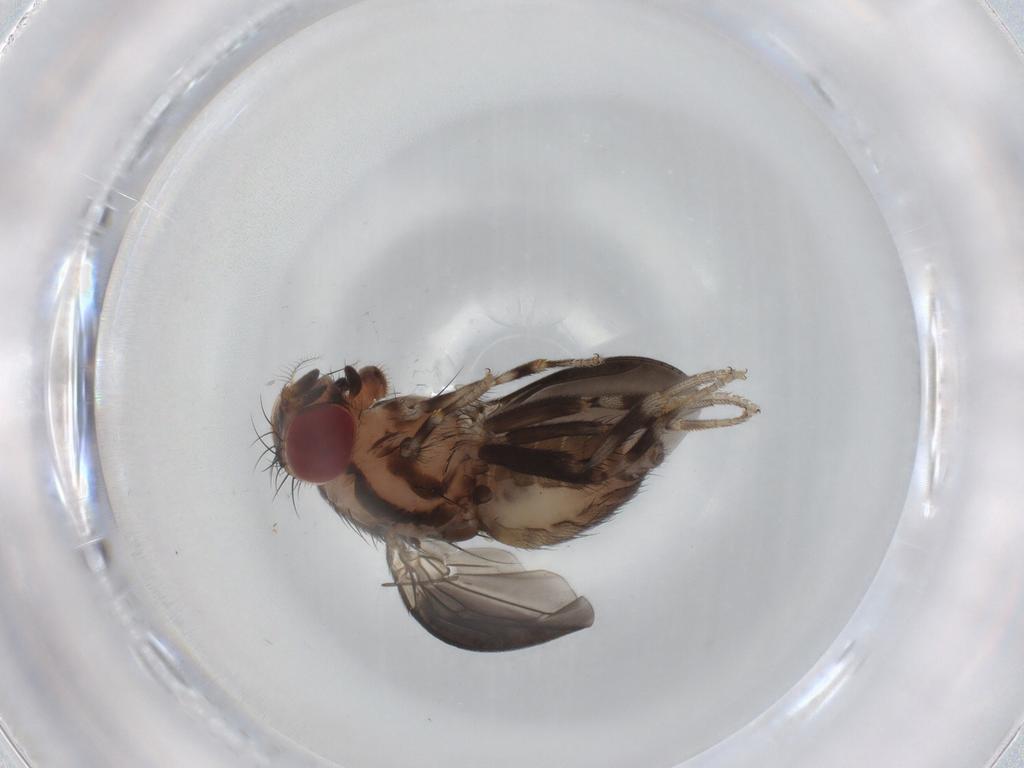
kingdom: Animalia
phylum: Arthropoda
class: Insecta
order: Diptera
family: Drosophilidae
